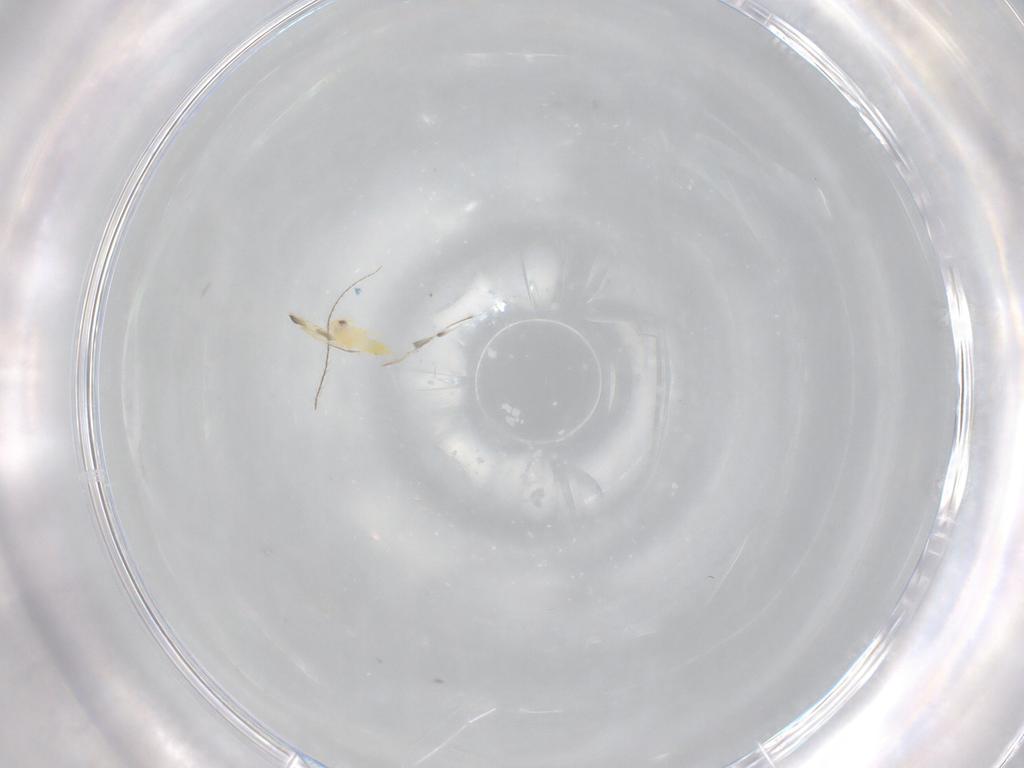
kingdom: Animalia
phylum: Arthropoda
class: Insecta
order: Hemiptera
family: Aleyrodidae
